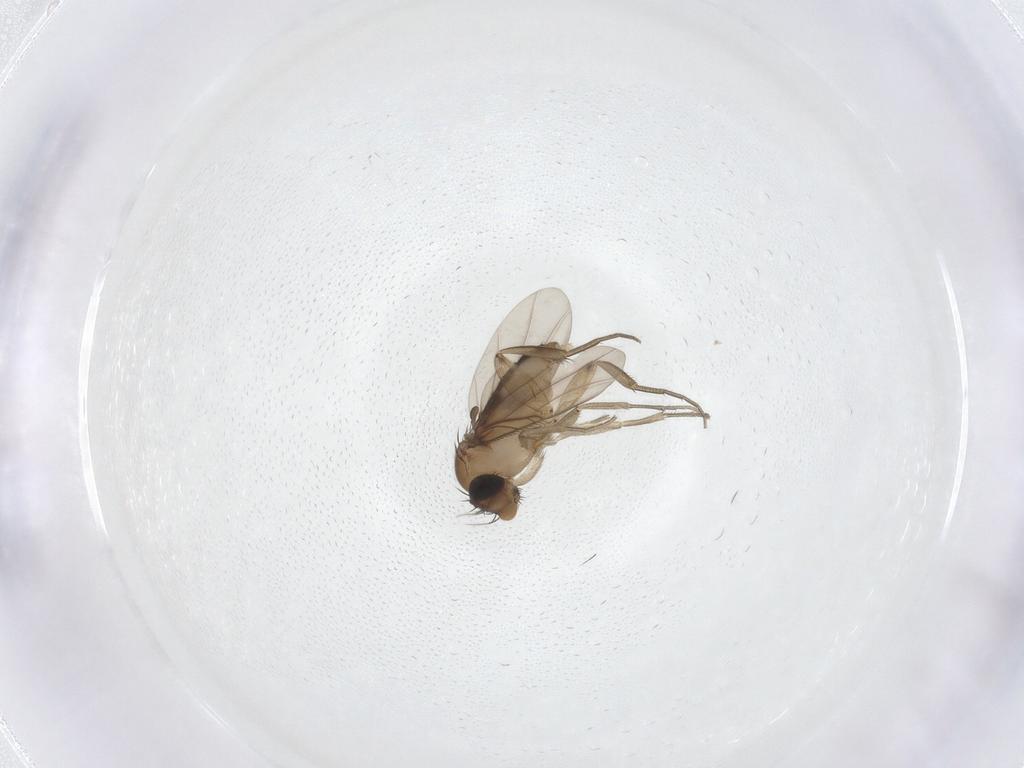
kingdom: Animalia
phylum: Arthropoda
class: Insecta
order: Diptera
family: Phoridae
